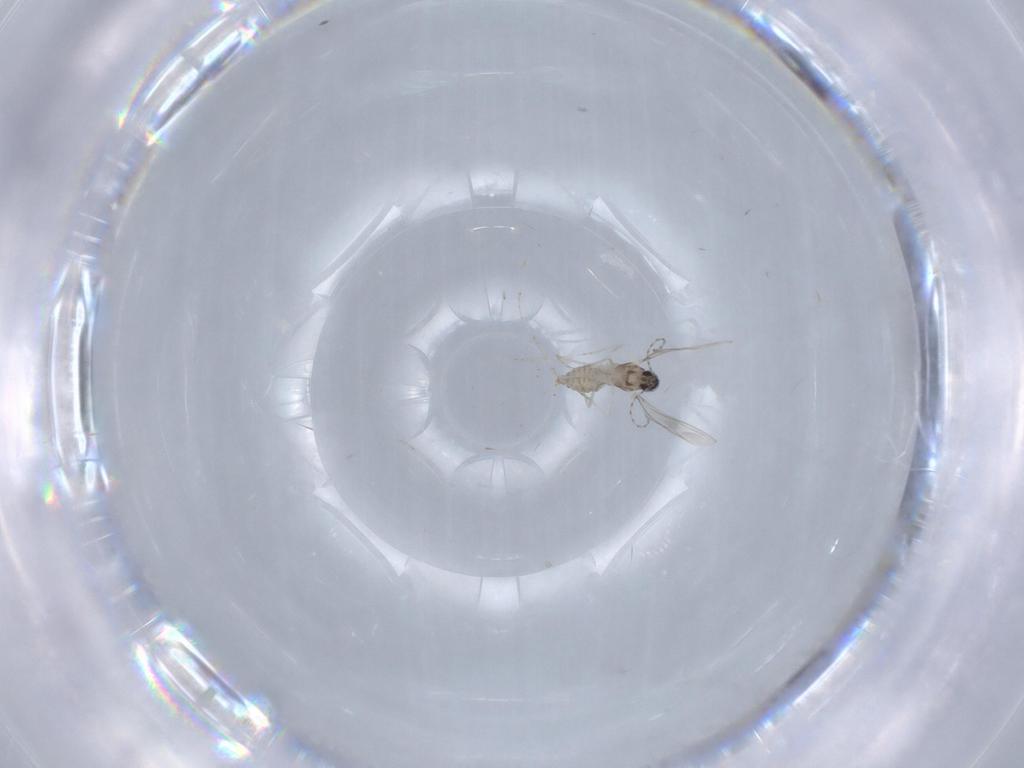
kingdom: Animalia
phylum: Arthropoda
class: Insecta
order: Diptera
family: Cecidomyiidae
